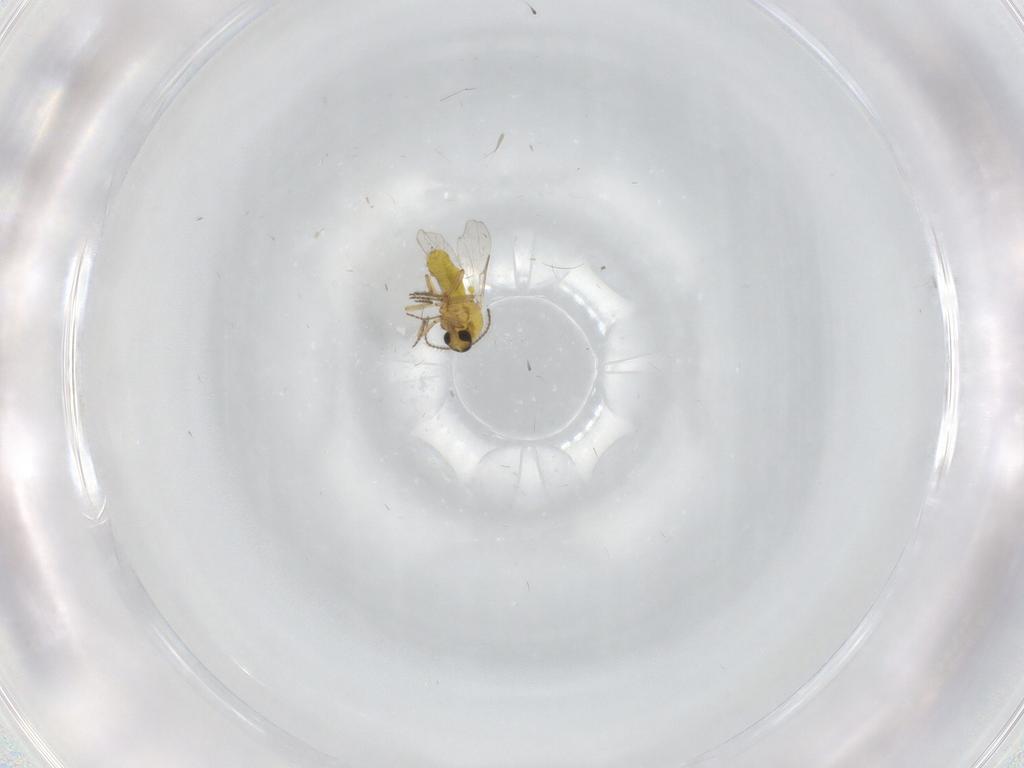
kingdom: Animalia
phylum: Arthropoda
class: Insecta
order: Diptera
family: Ceratopogonidae
